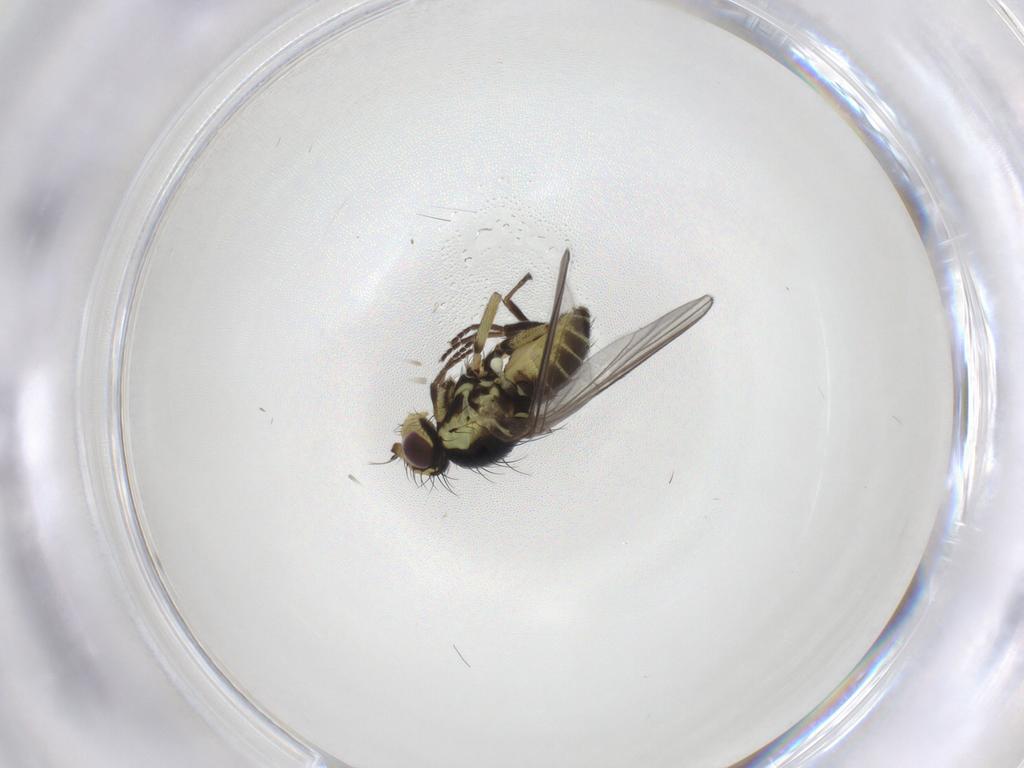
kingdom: Animalia
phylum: Arthropoda
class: Insecta
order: Diptera
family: Agromyzidae
